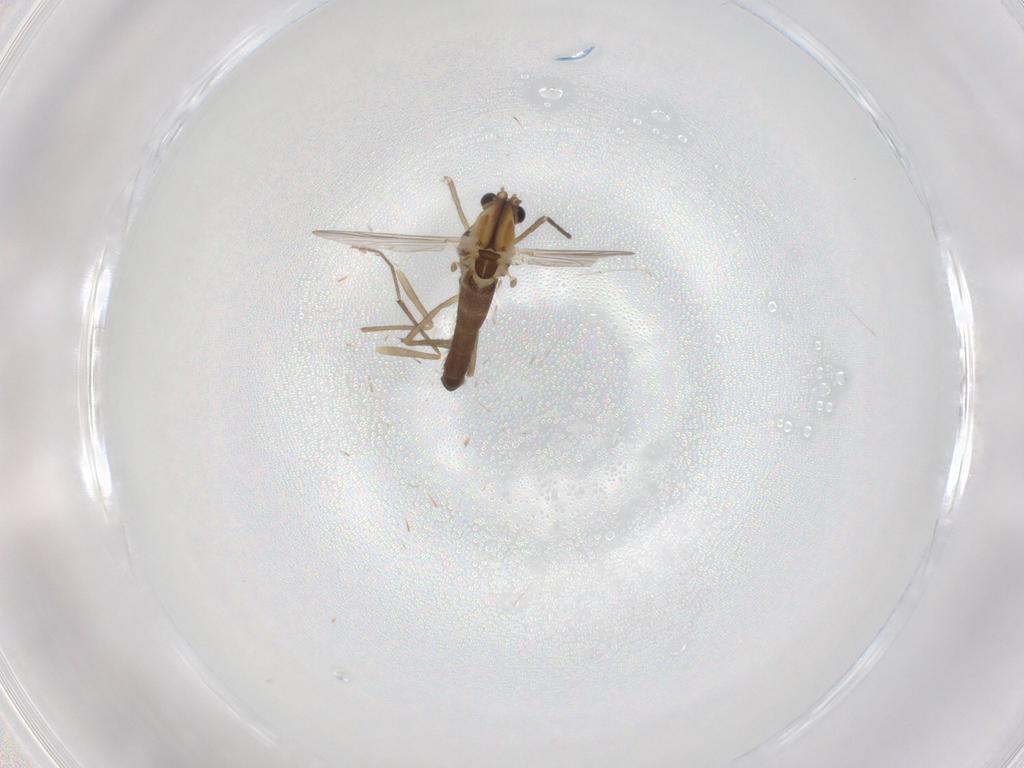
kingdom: Animalia
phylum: Arthropoda
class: Insecta
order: Diptera
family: Chironomidae
